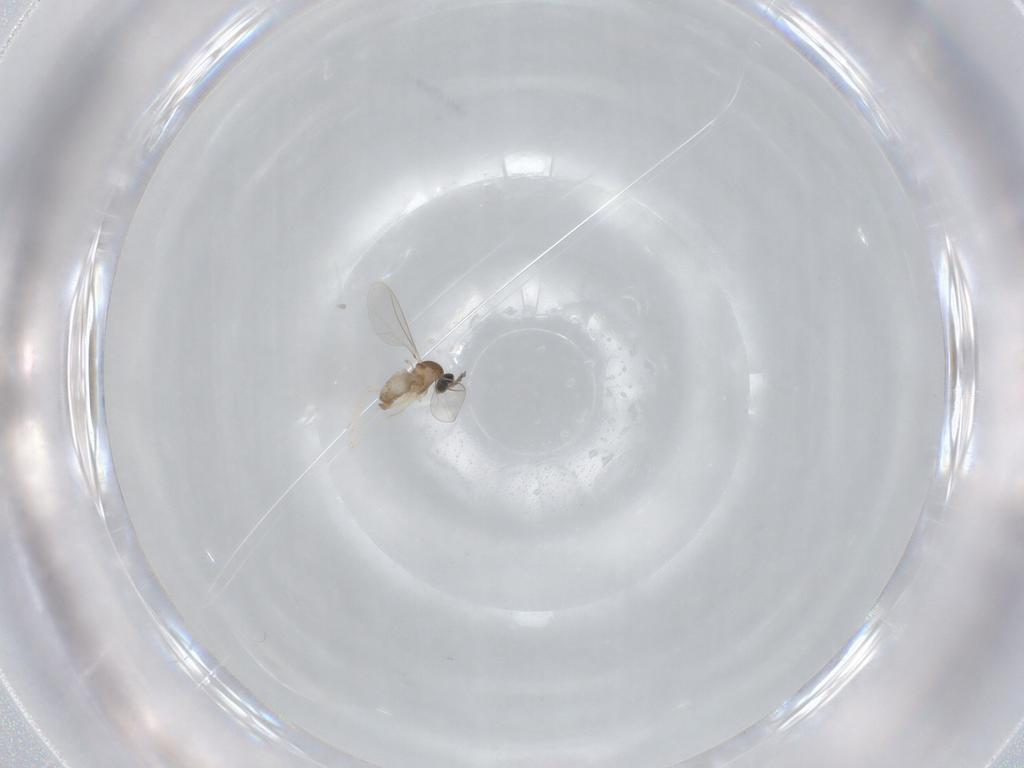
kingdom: Animalia
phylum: Arthropoda
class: Insecta
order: Diptera
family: Cecidomyiidae
